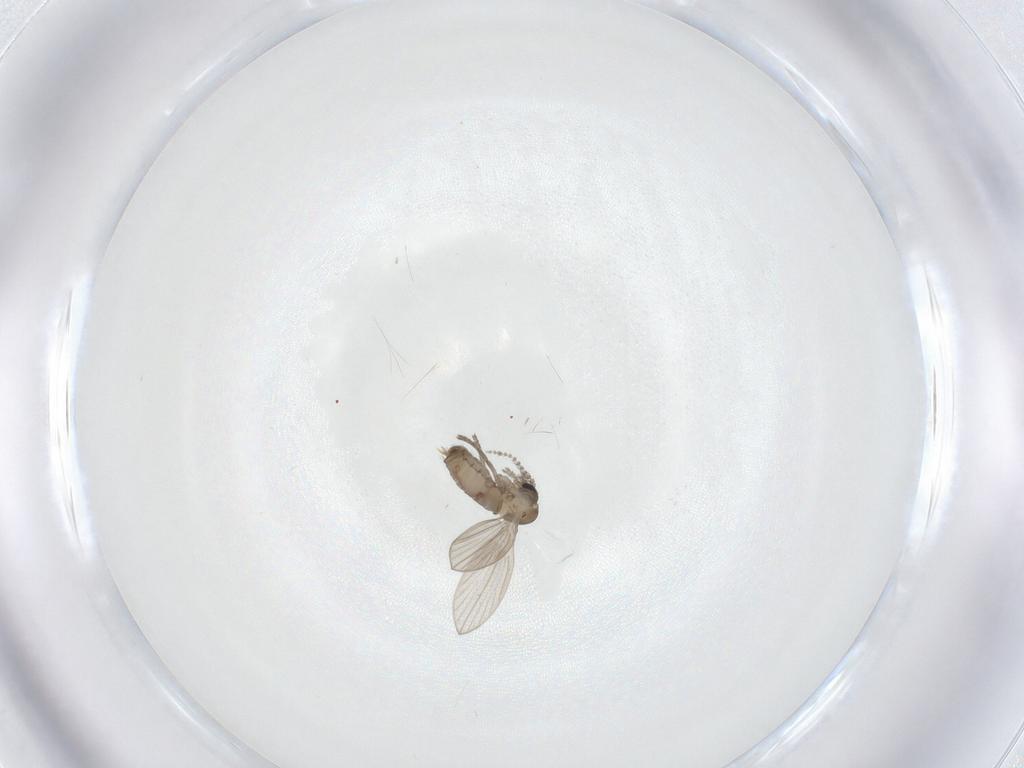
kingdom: Animalia
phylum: Arthropoda
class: Insecta
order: Diptera
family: Psychodidae
